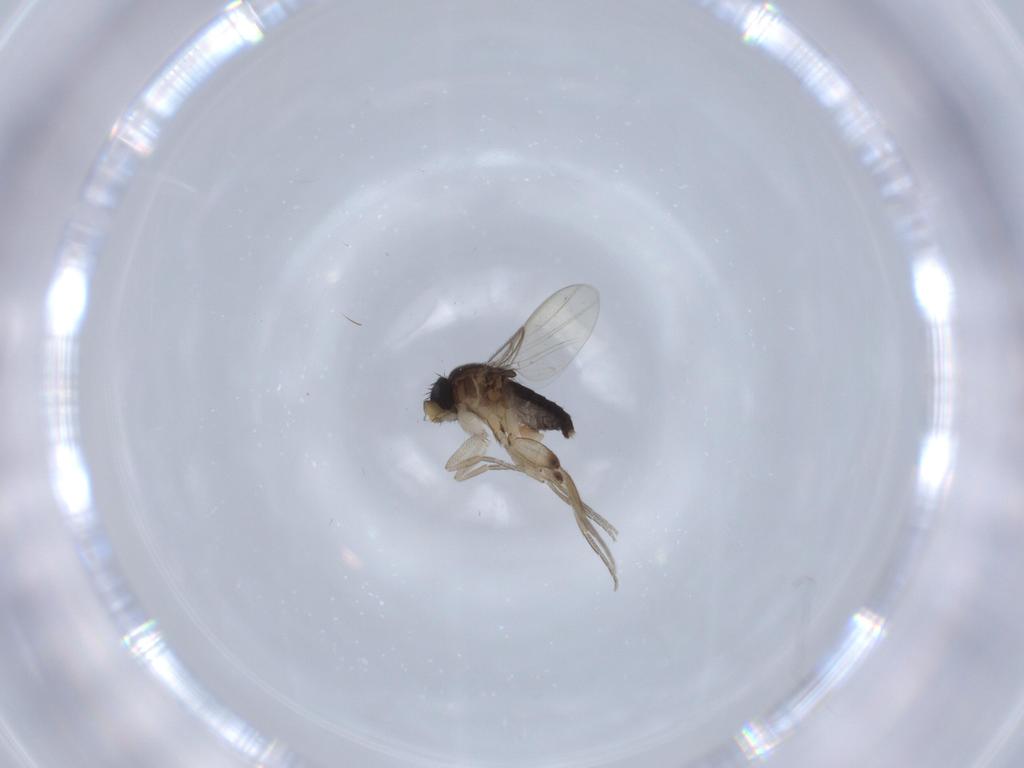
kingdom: Animalia
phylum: Arthropoda
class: Insecta
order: Diptera
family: Phoridae
